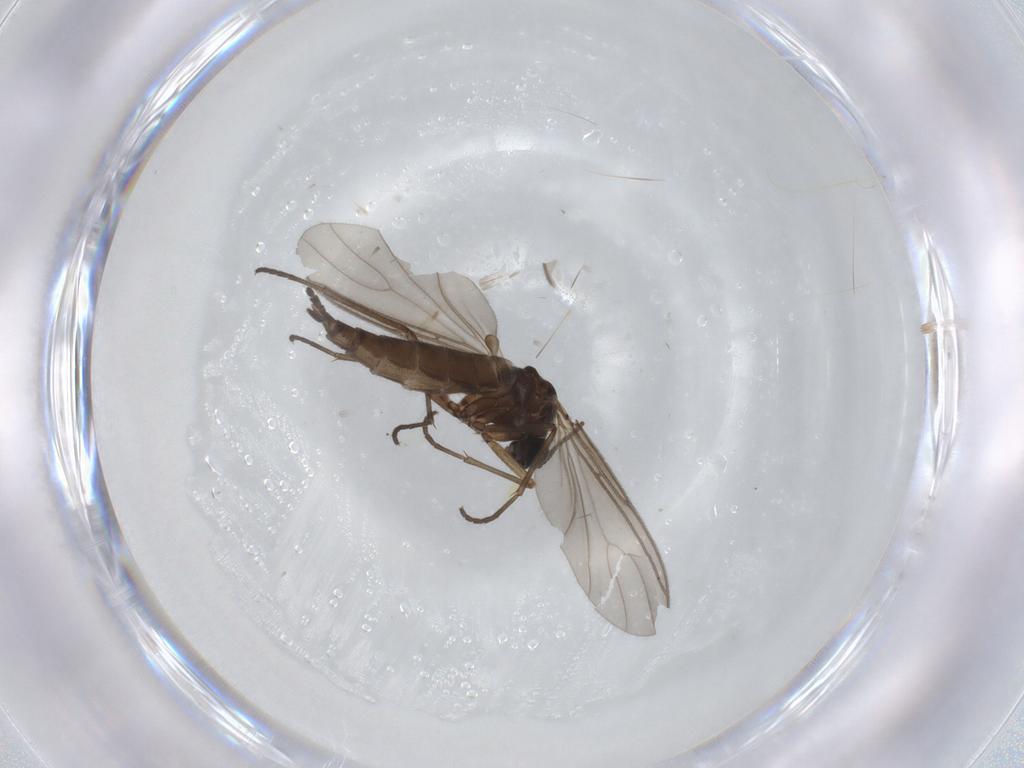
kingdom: Animalia
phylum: Arthropoda
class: Insecta
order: Diptera
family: Sciaridae
